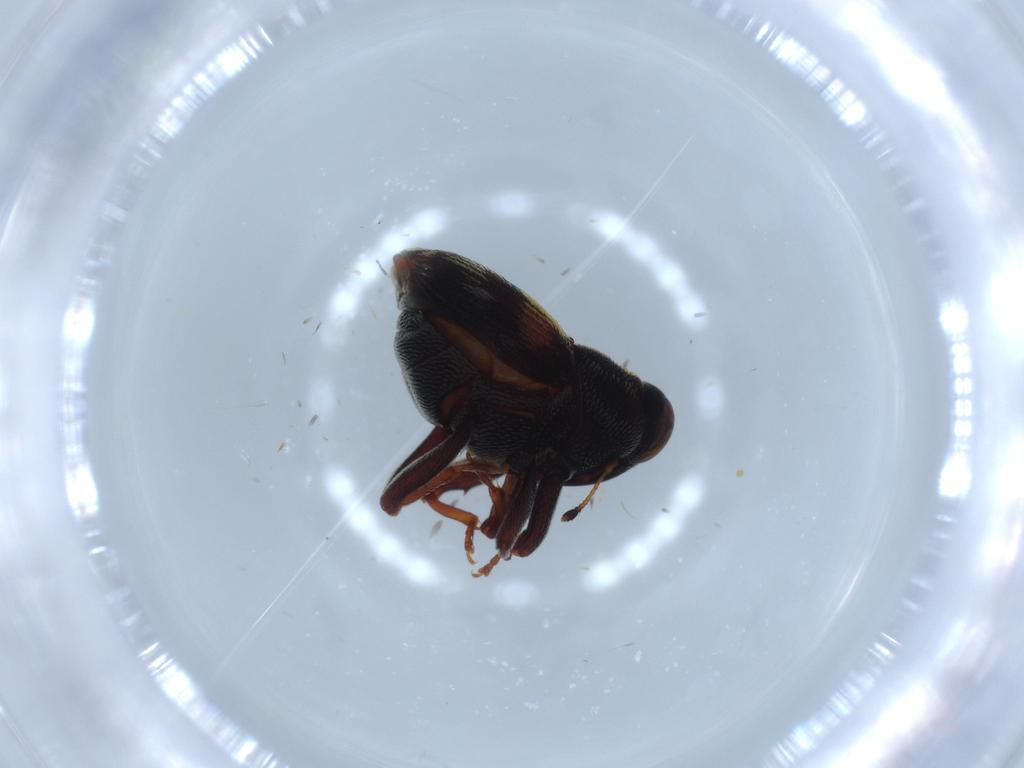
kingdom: Animalia
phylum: Arthropoda
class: Insecta
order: Coleoptera
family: Curculionidae
